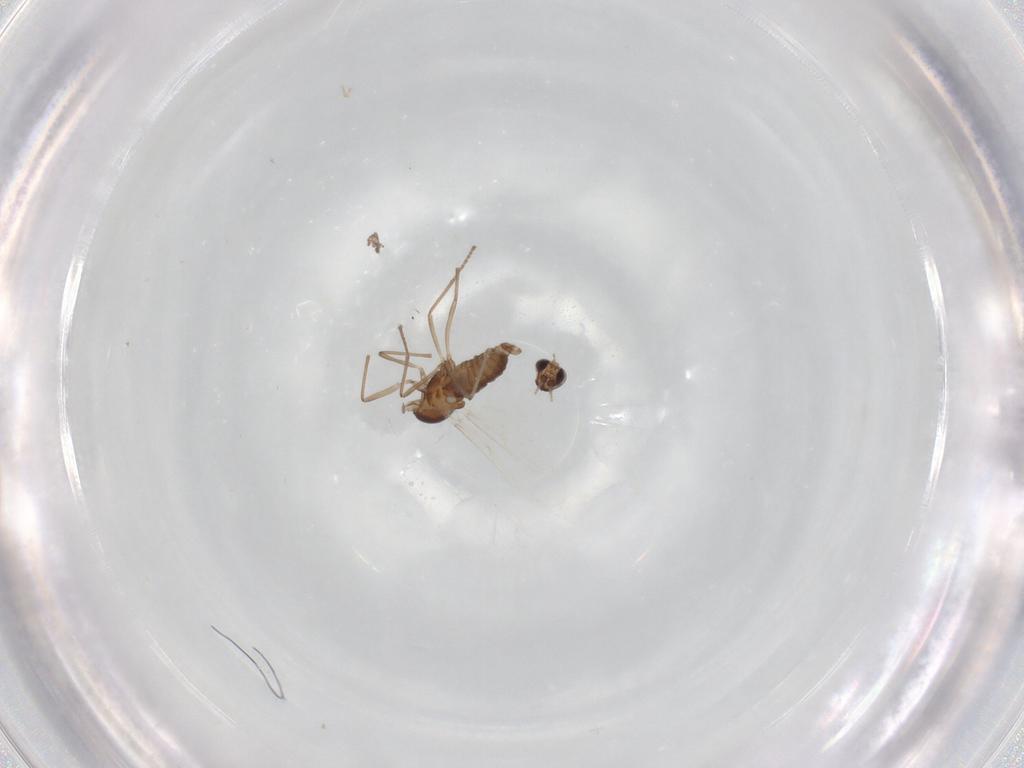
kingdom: Animalia
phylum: Arthropoda
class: Insecta
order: Diptera
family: Cecidomyiidae
